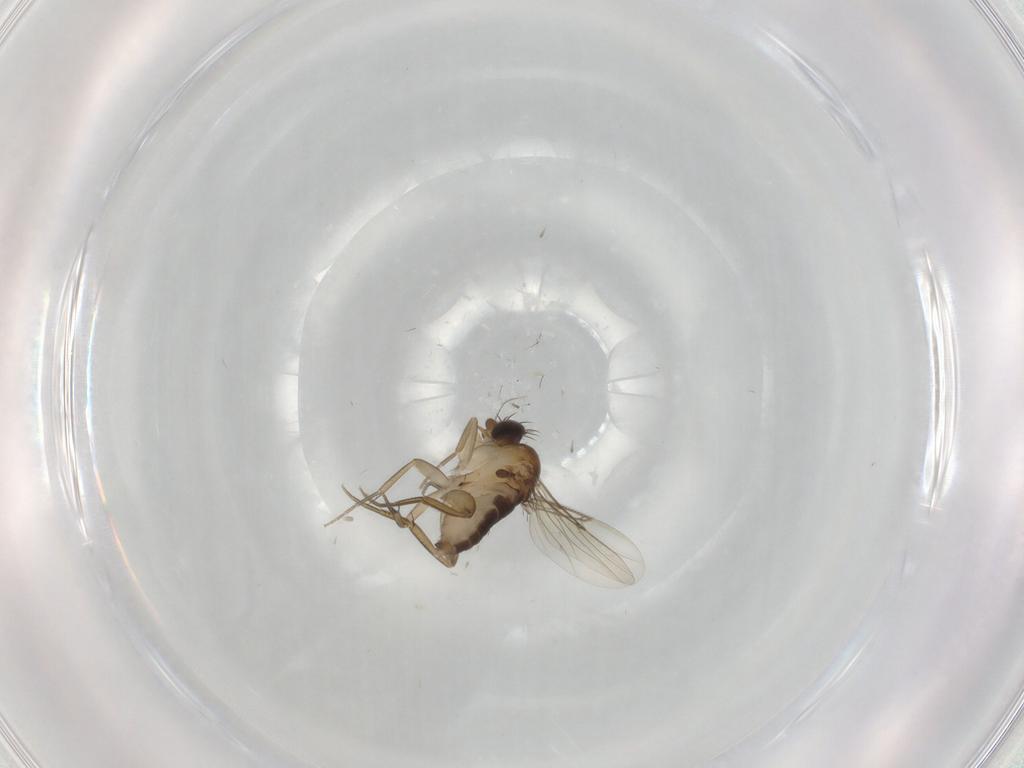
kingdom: Animalia
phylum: Arthropoda
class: Insecta
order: Diptera
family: Phoridae
